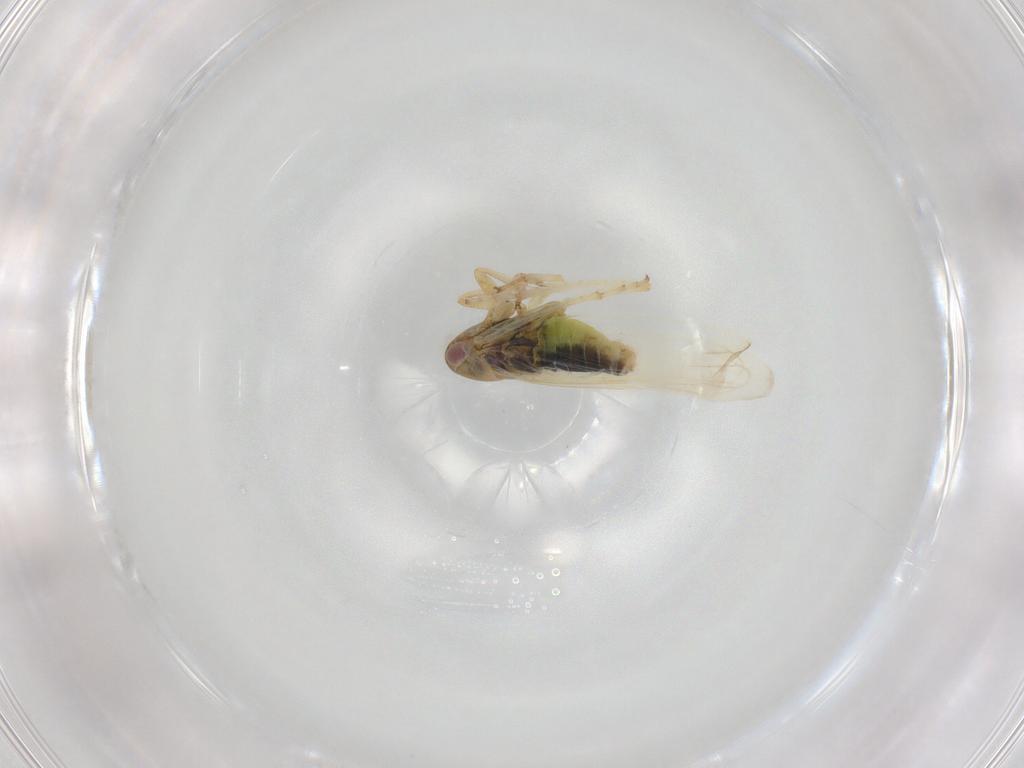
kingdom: Animalia
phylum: Arthropoda
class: Insecta
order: Hemiptera
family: Cicadellidae
